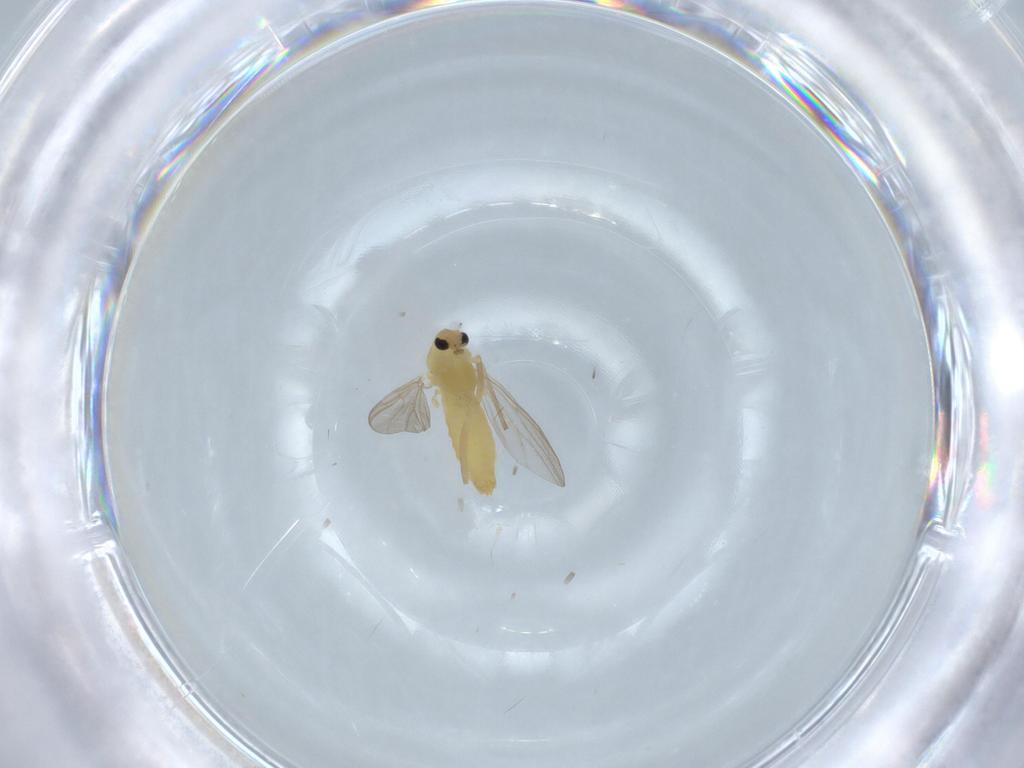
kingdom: Animalia
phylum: Arthropoda
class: Insecta
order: Diptera
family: Chironomidae
